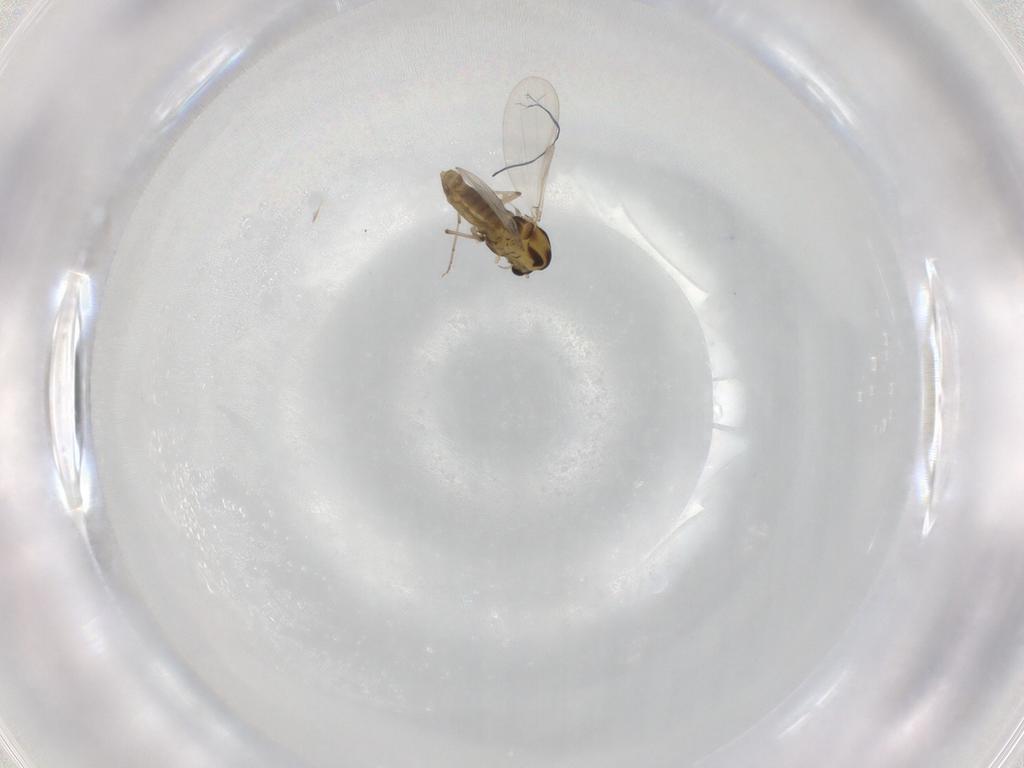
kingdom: Animalia
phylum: Arthropoda
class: Insecta
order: Diptera
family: Chironomidae
